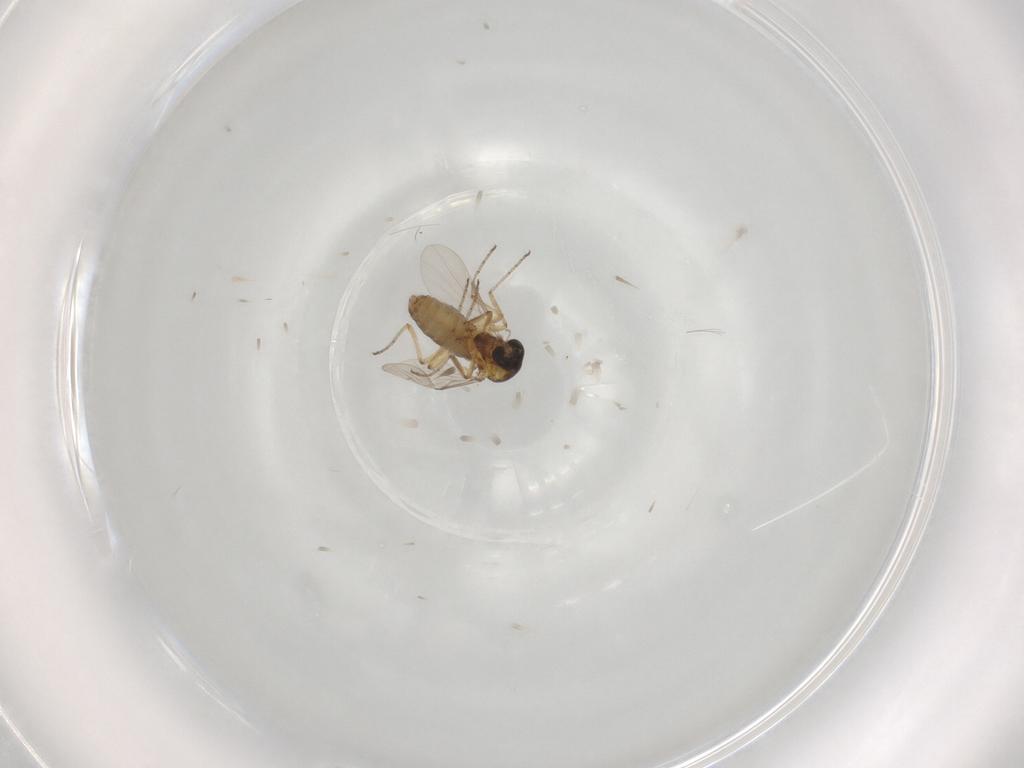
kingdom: Animalia
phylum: Arthropoda
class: Insecta
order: Diptera
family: Ceratopogonidae
